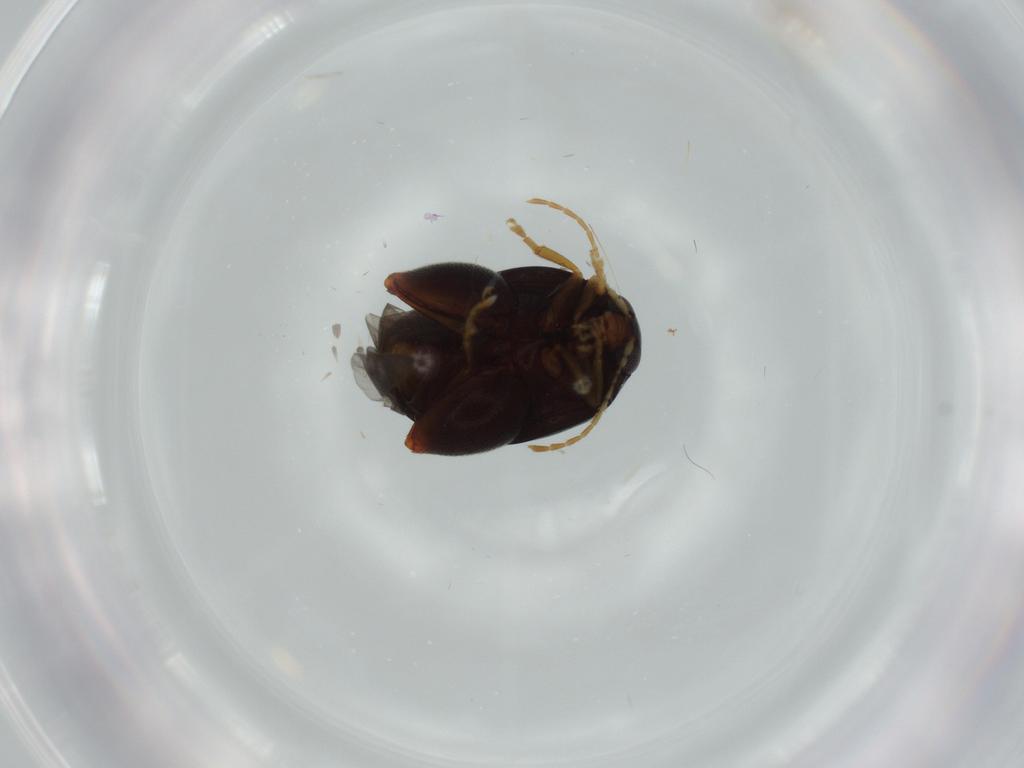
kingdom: Animalia
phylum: Arthropoda
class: Insecta
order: Coleoptera
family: Chrysomelidae
